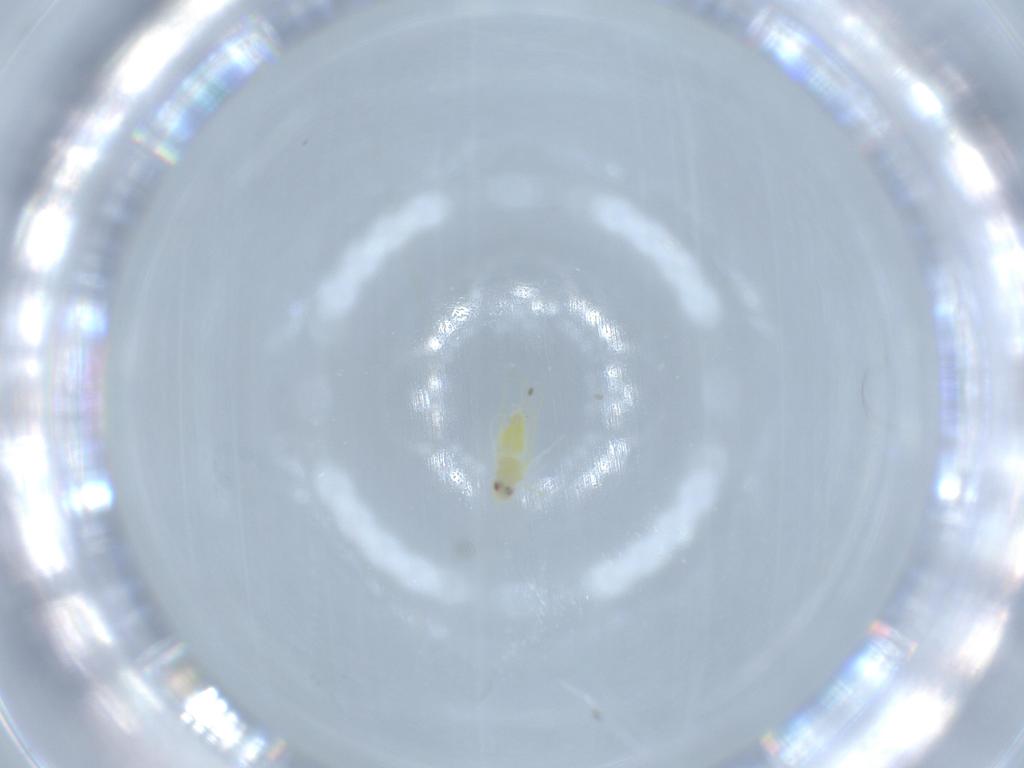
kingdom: Animalia
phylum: Arthropoda
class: Insecta
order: Hemiptera
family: Aleyrodidae
